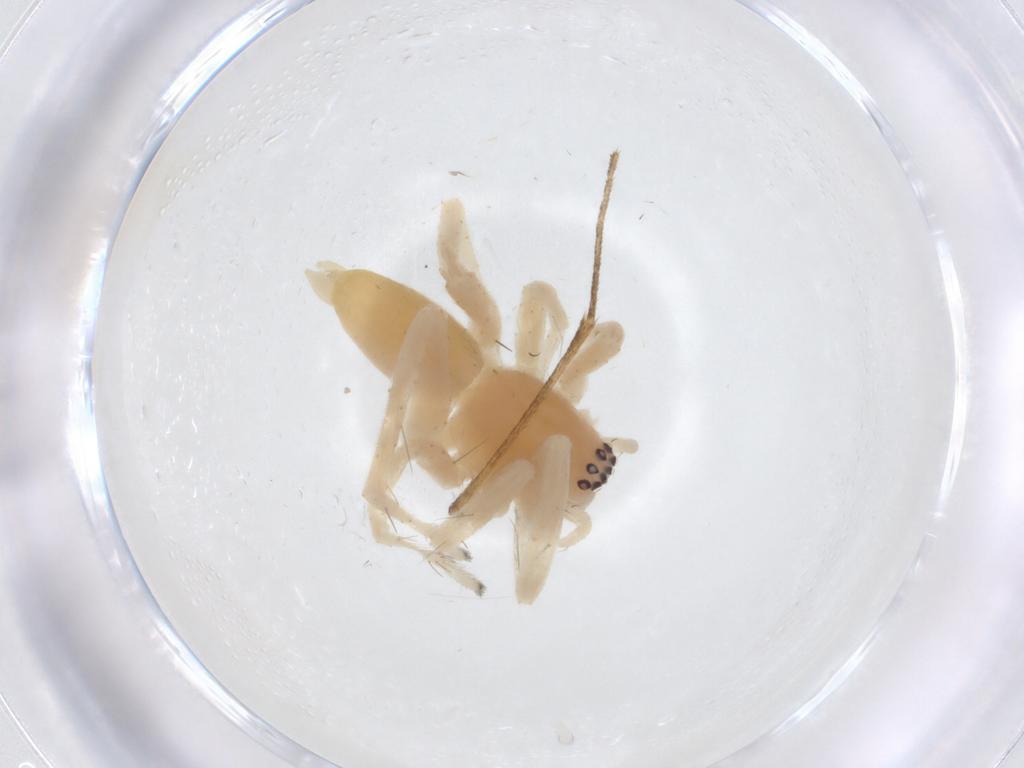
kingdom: Animalia
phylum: Arthropoda
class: Arachnida
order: Araneae
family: Anyphaenidae
